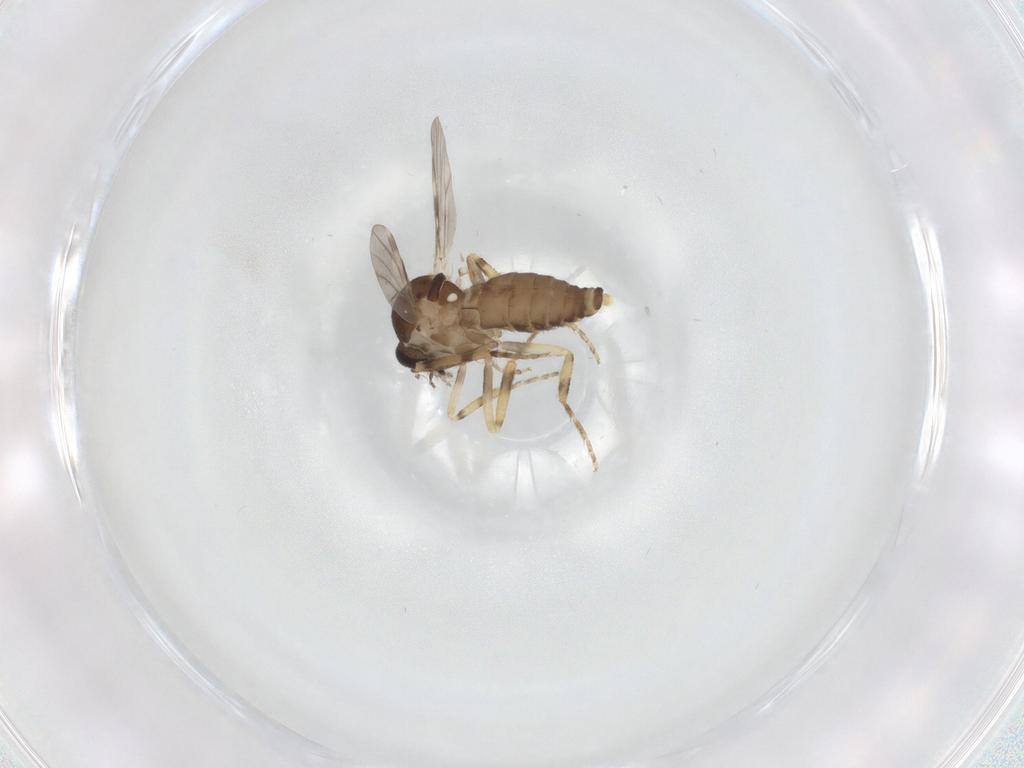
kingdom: Animalia
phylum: Arthropoda
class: Insecta
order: Diptera
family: Ceratopogonidae
